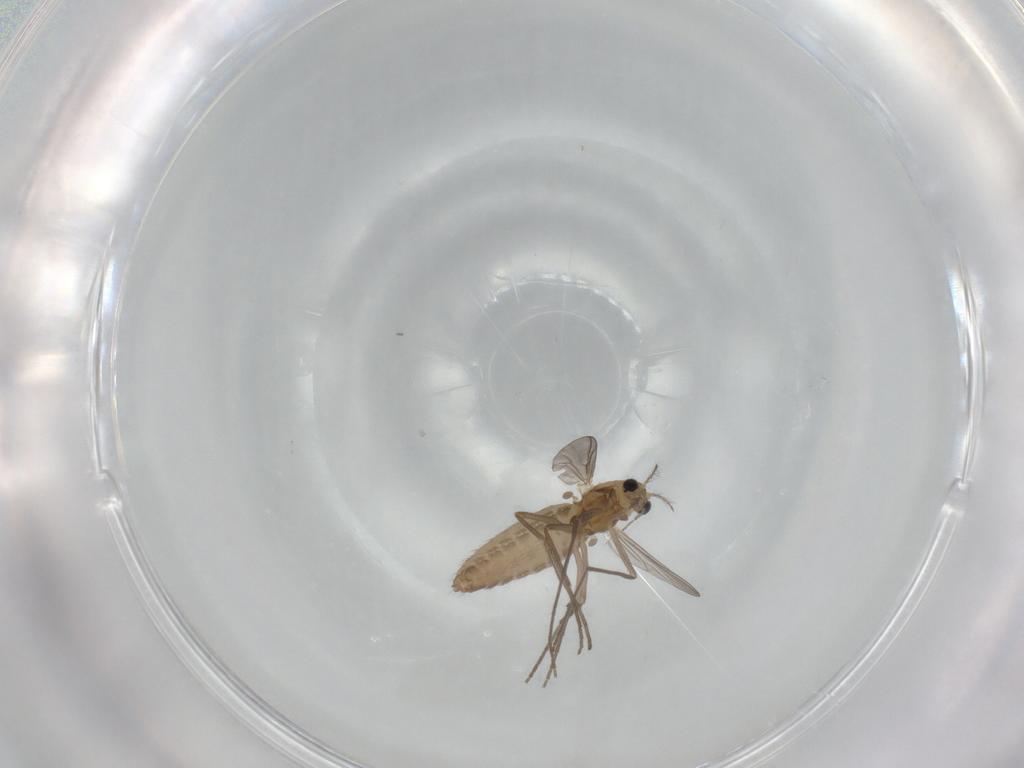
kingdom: Animalia
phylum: Arthropoda
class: Insecta
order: Diptera
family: Chironomidae
